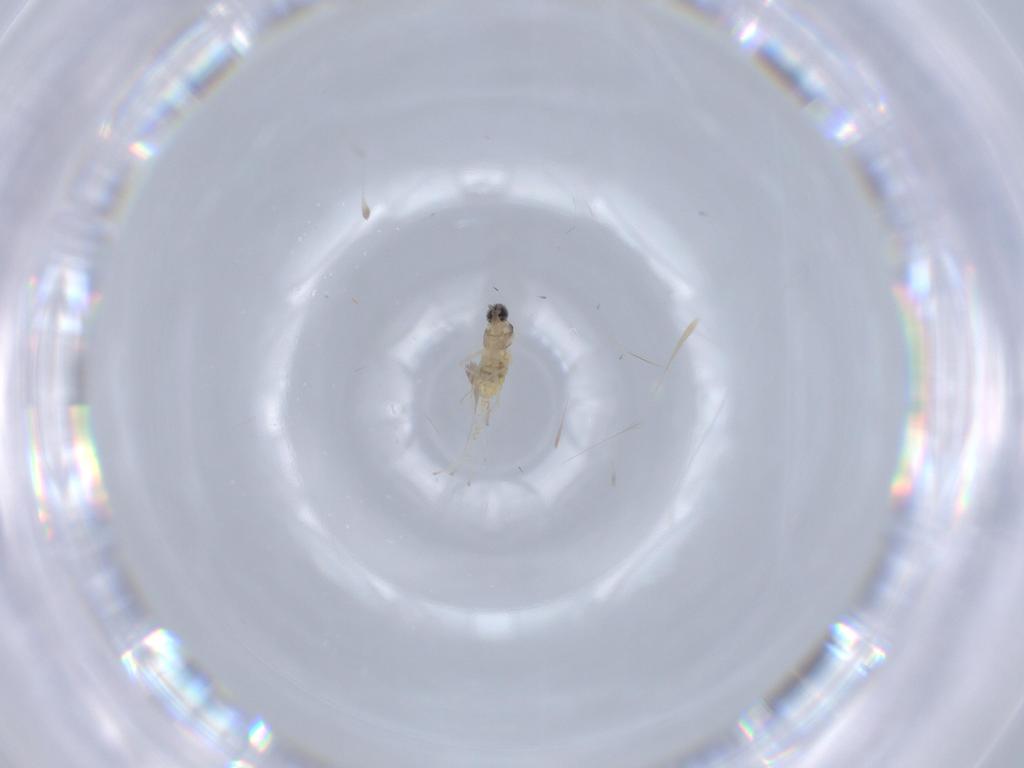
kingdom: Animalia
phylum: Arthropoda
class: Insecta
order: Diptera
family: Cecidomyiidae
